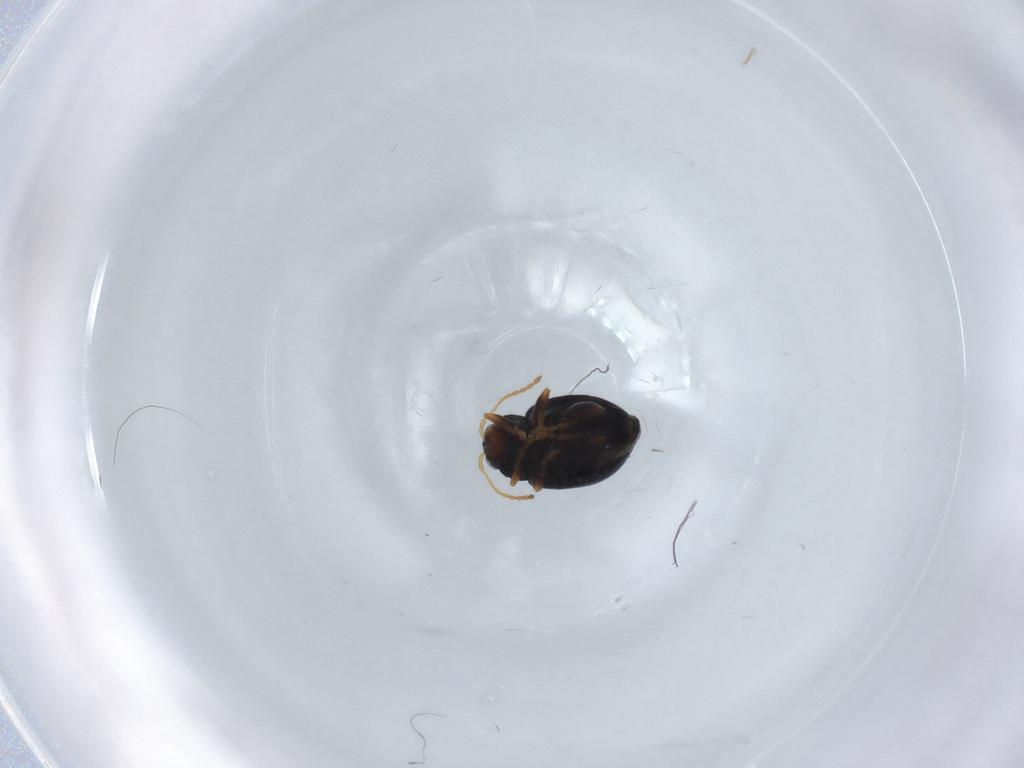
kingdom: Animalia
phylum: Arthropoda
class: Insecta
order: Coleoptera
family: Chrysomelidae
